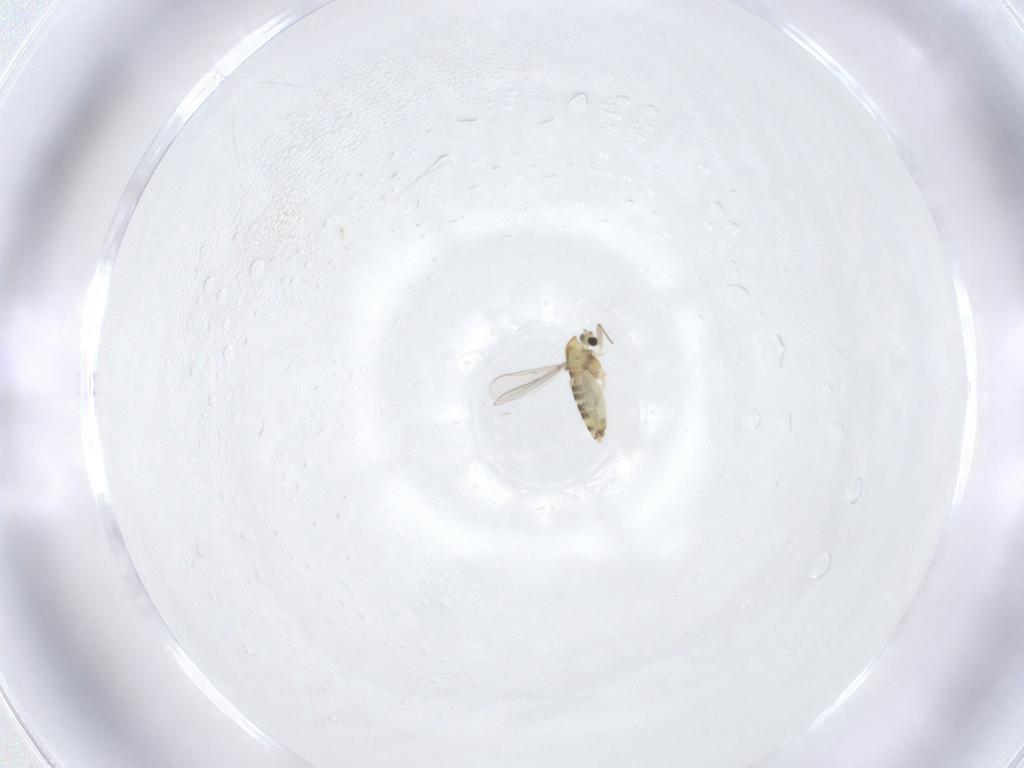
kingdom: Animalia
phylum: Arthropoda
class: Insecta
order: Diptera
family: Chironomidae
